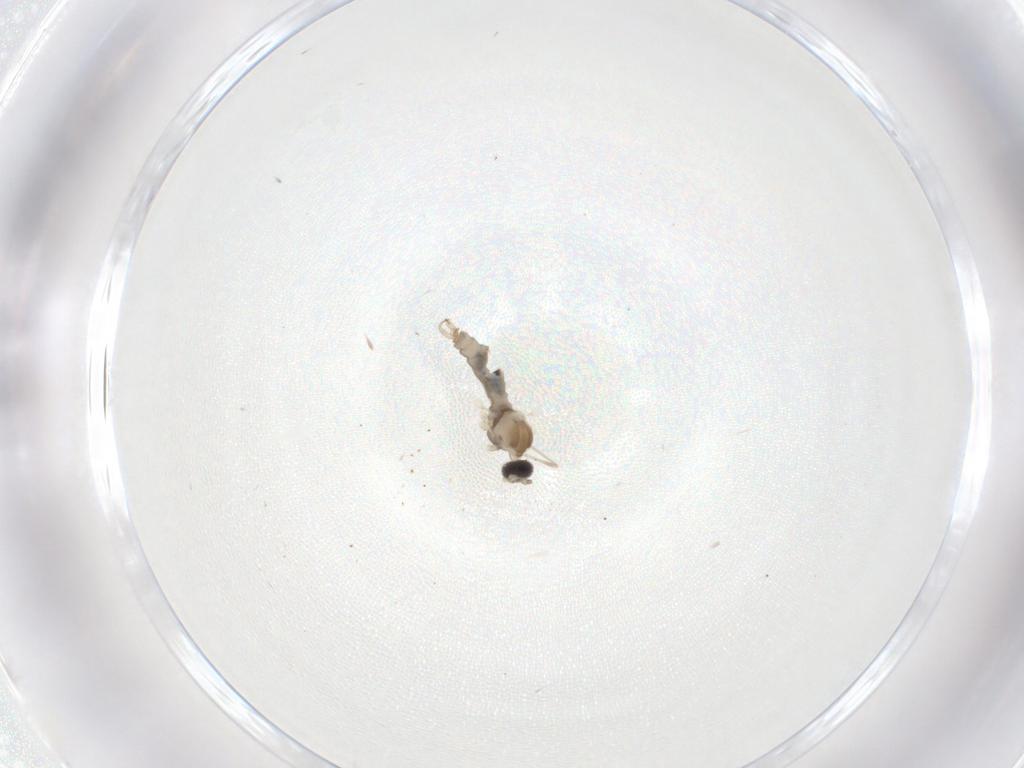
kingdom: Animalia
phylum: Arthropoda
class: Insecta
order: Diptera
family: Cecidomyiidae
